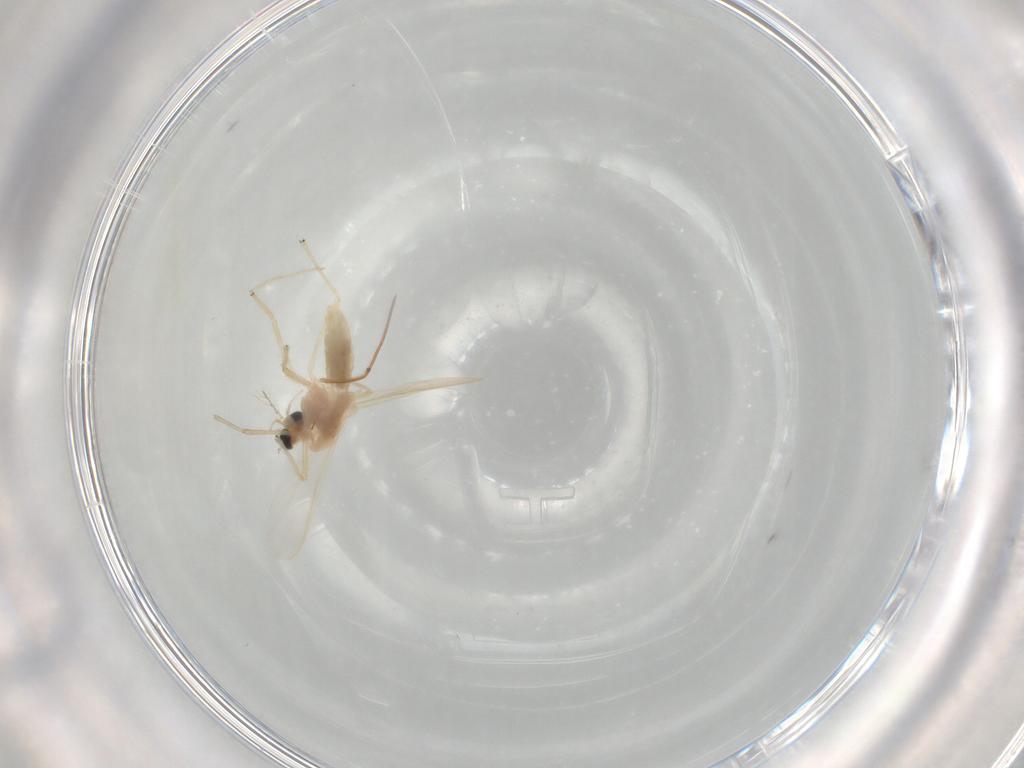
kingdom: Animalia
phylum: Arthropoda
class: Insecta
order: Diptera
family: Chironomidae
